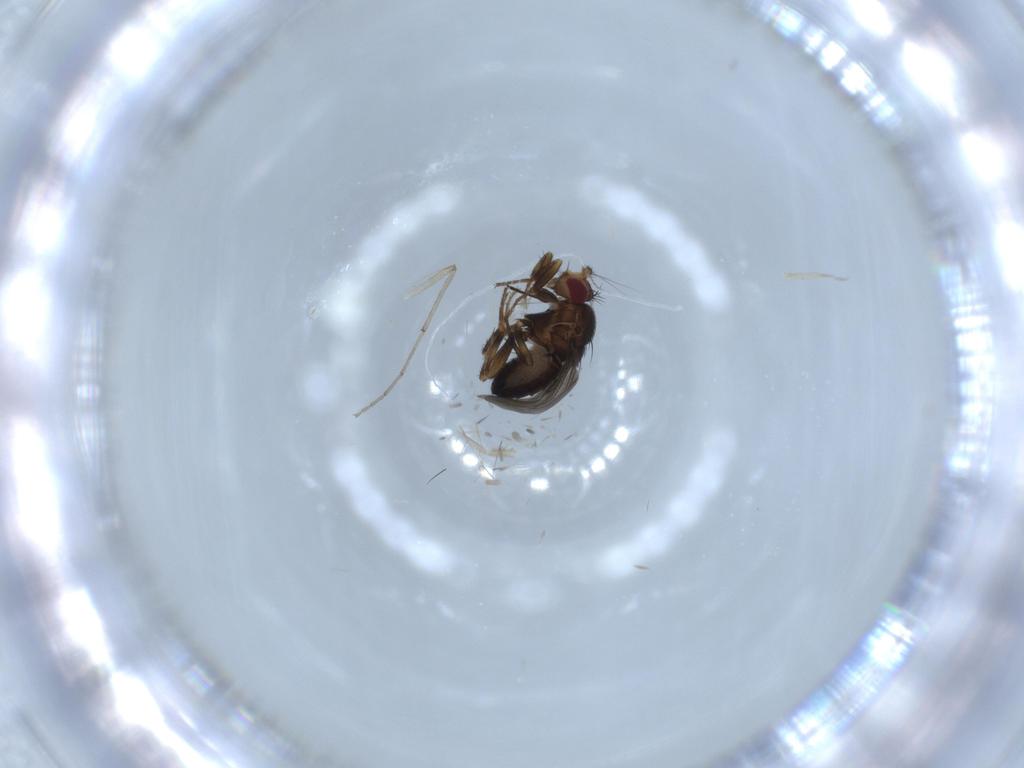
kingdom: Animalia
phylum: Arthropoda
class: Insecta
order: Diptera
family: Sphaeroceridae
